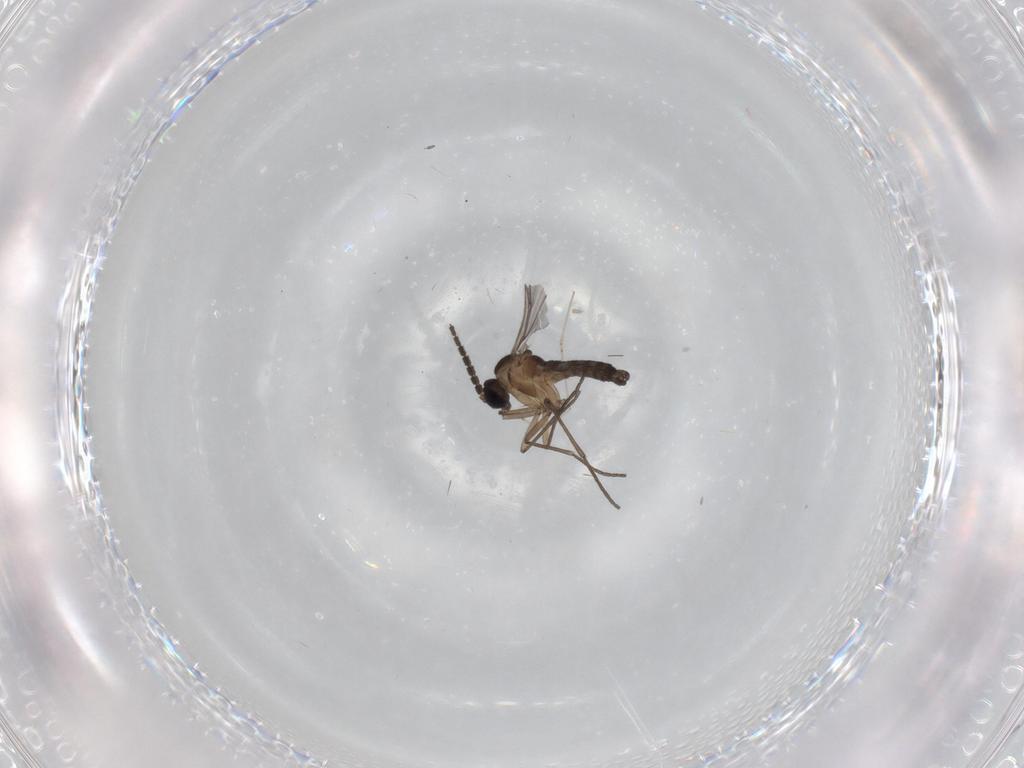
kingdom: Animalia
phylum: Arthropoda
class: Insecta
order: Diptera
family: Sciaridae
